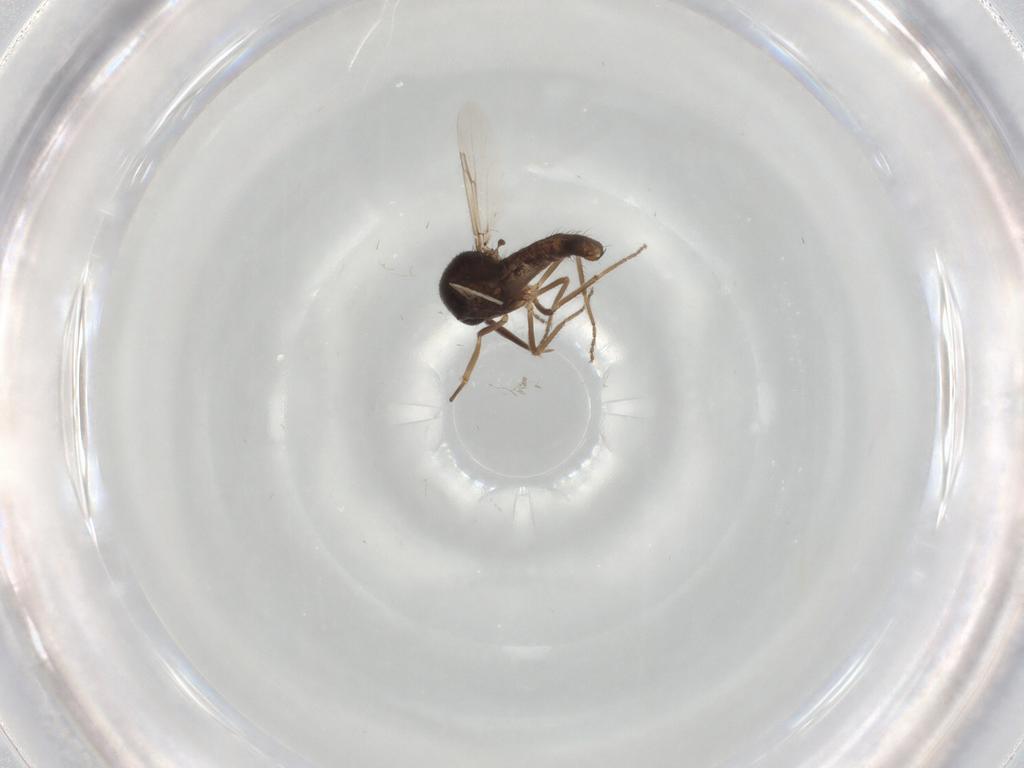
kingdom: Animalia
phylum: Arthropoda
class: Insecta
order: Diptera
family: Ceratopogonidae
